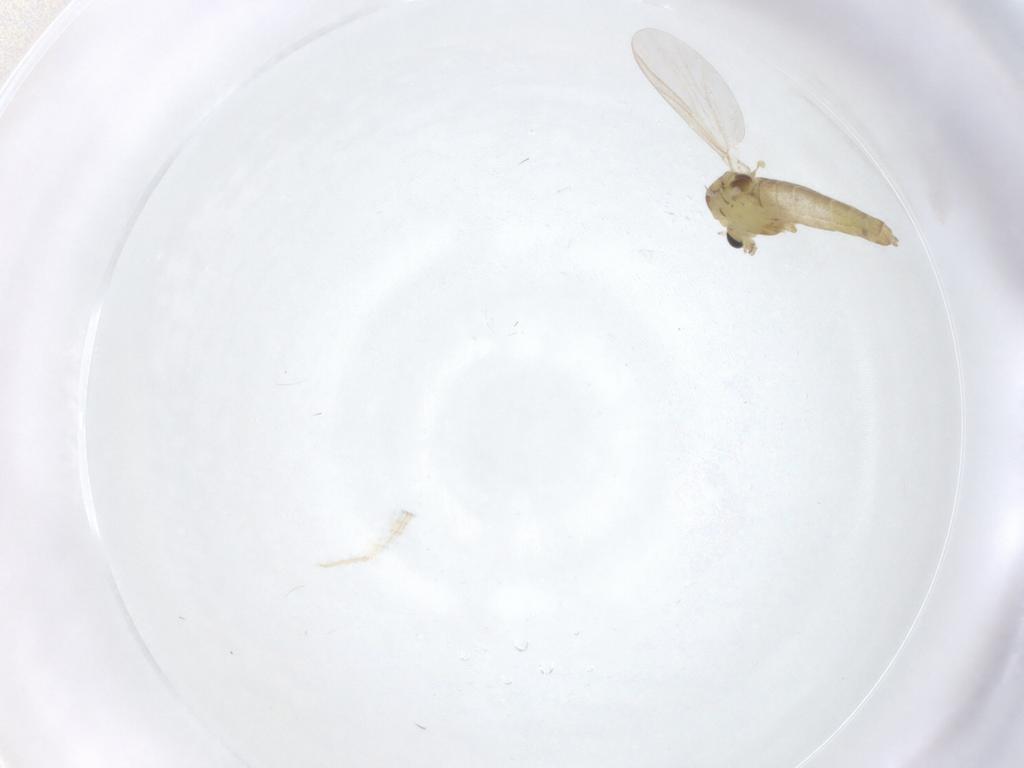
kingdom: Animalia
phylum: Arthropoda
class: Insecta
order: Diptera
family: Chironomidae
